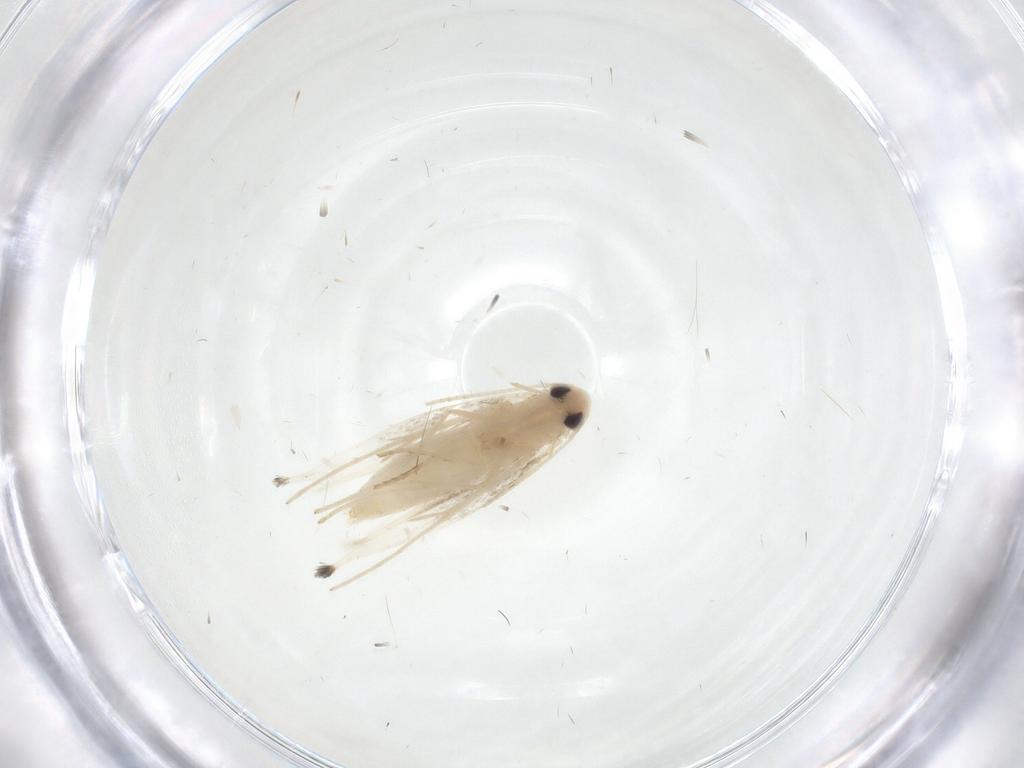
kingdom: Animalia
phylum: Arthropoda
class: Insecta
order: Lepidoptera
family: Gracillariidae
